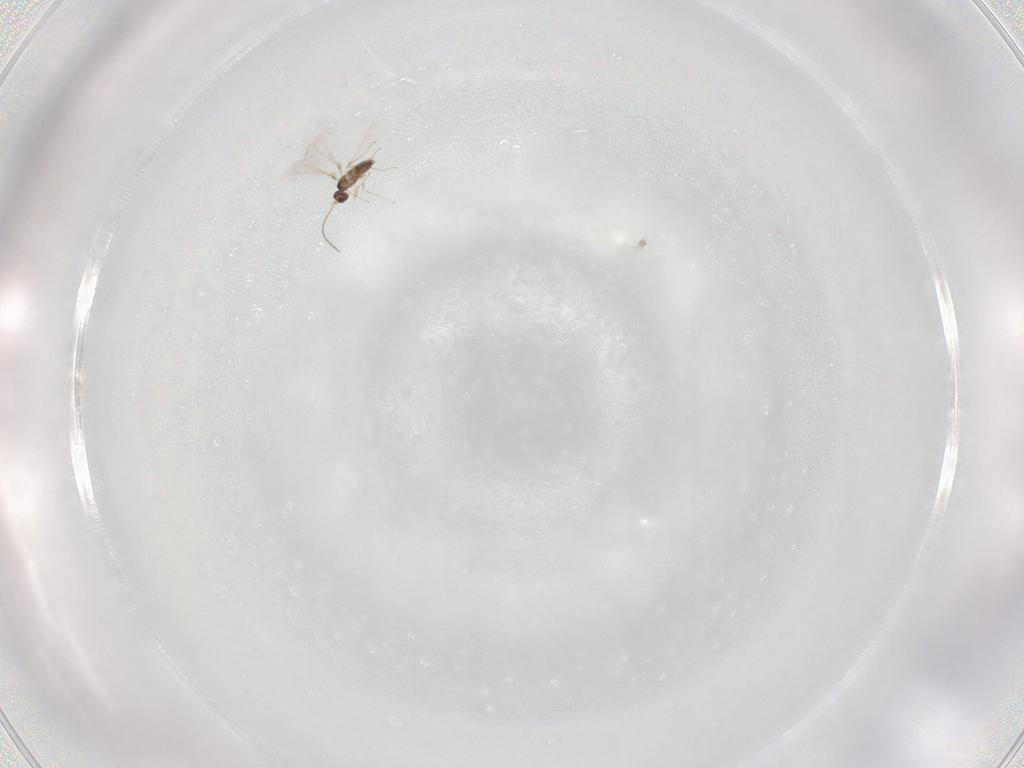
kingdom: Animalia
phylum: Arthropoda
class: Insecta
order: Hymenoptera
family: Mymaridae
